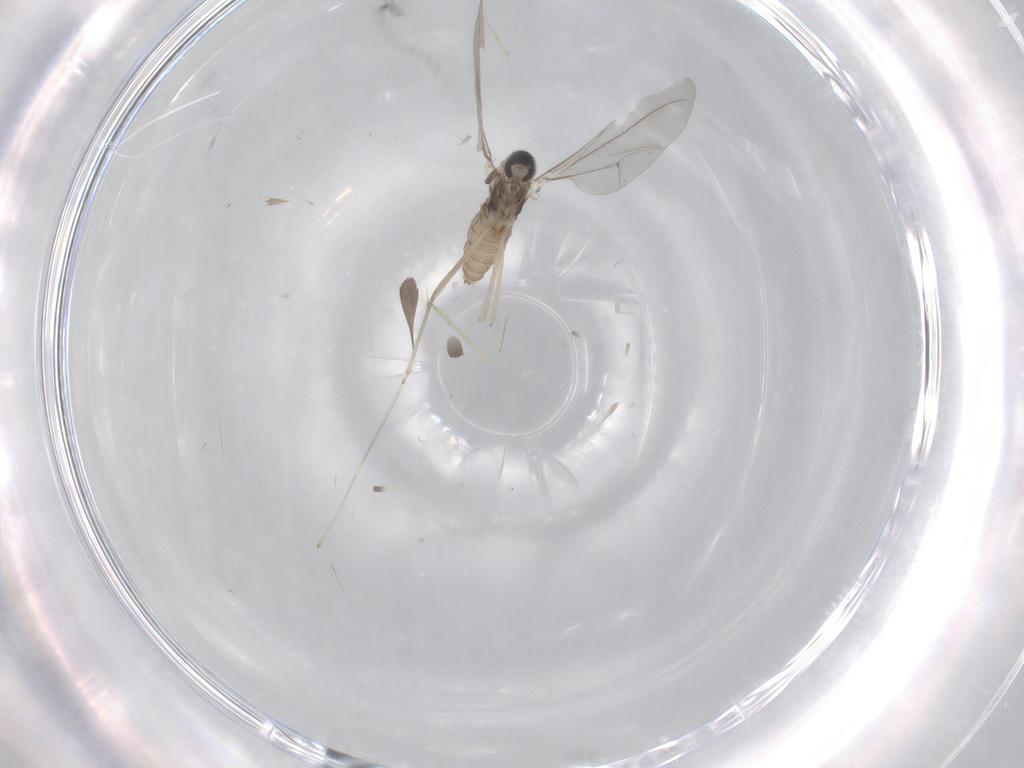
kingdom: Animalia
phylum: Arthropoda
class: Insecta
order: Diptera
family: Cecidomyiidae
